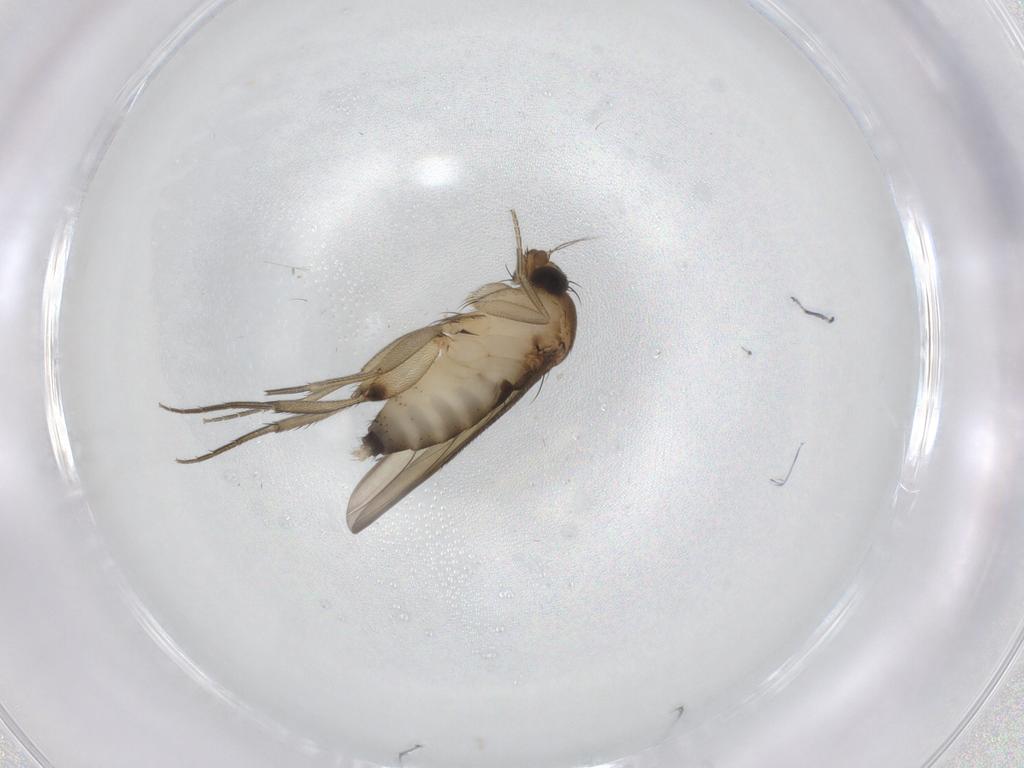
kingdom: Animalia
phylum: Arthropoda
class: Insecta
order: Diptera
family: Phoridae
